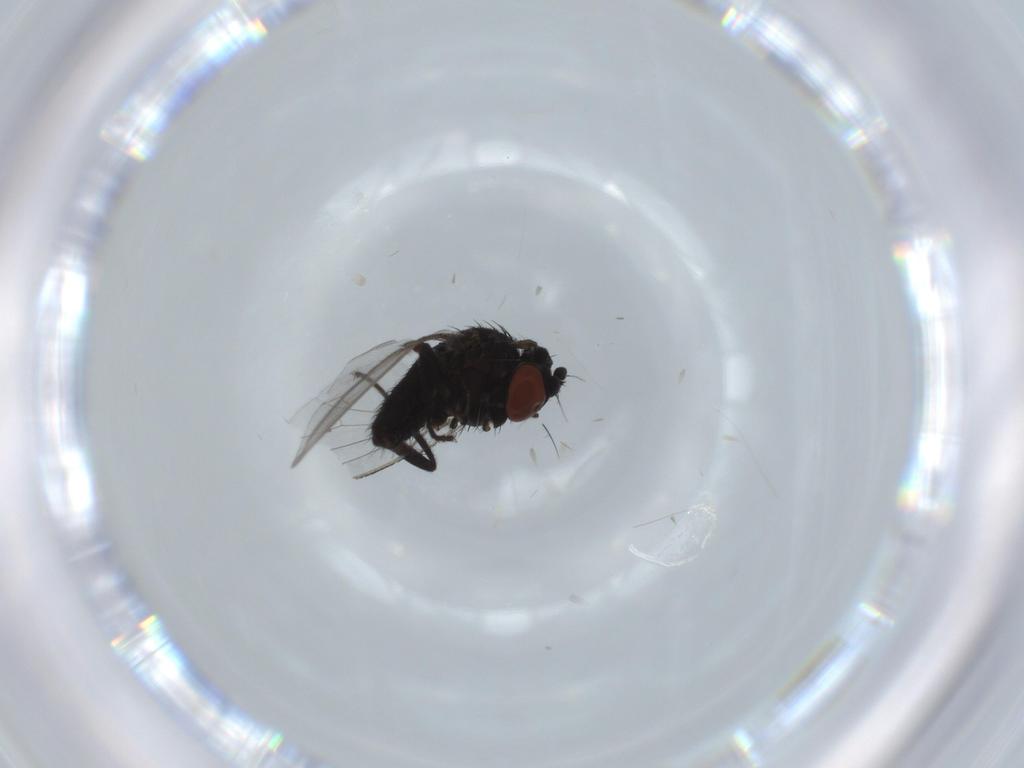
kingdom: Animalia
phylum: Arthropoda
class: Insecta
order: Diptera
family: Milichiidae
